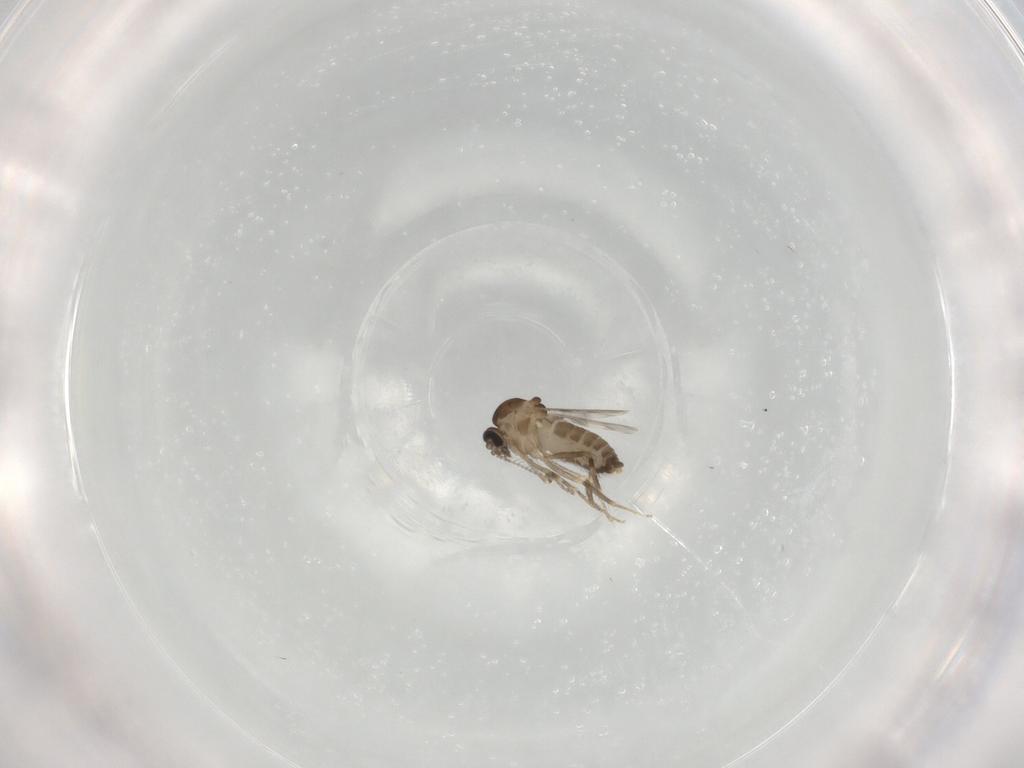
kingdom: Animalia
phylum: Arthropoda
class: Insecta
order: Diptera
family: Ceratopogonidae
